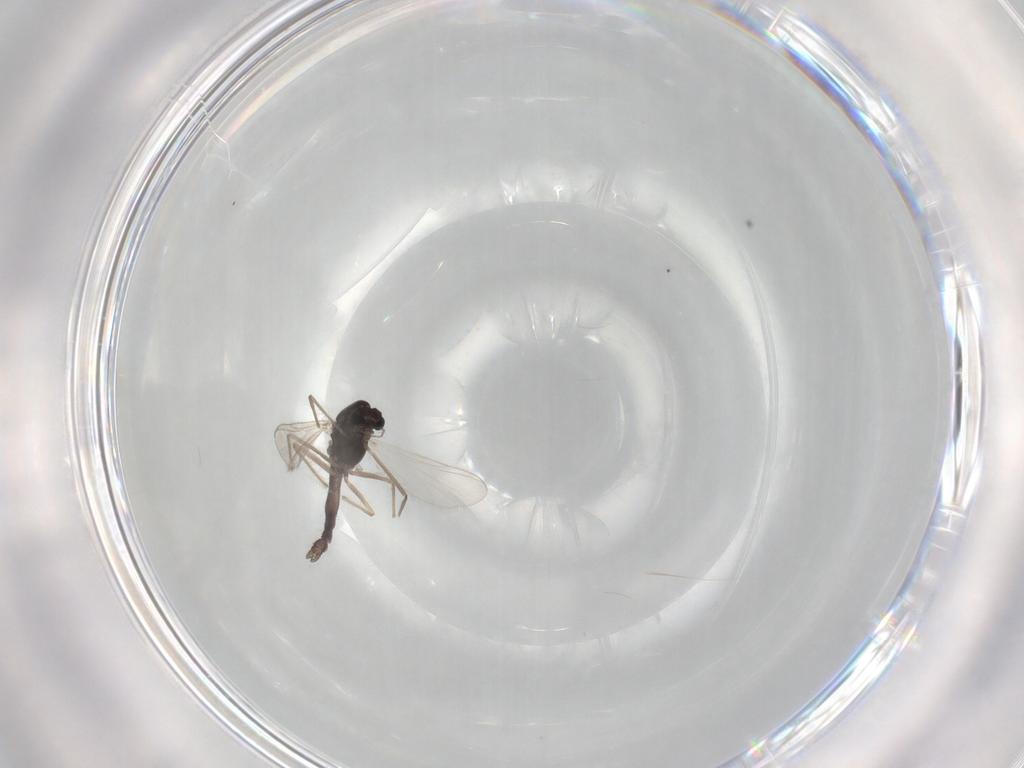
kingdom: Animalia
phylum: Arthropoda
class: Insecta
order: Diptera
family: Chironomidae
